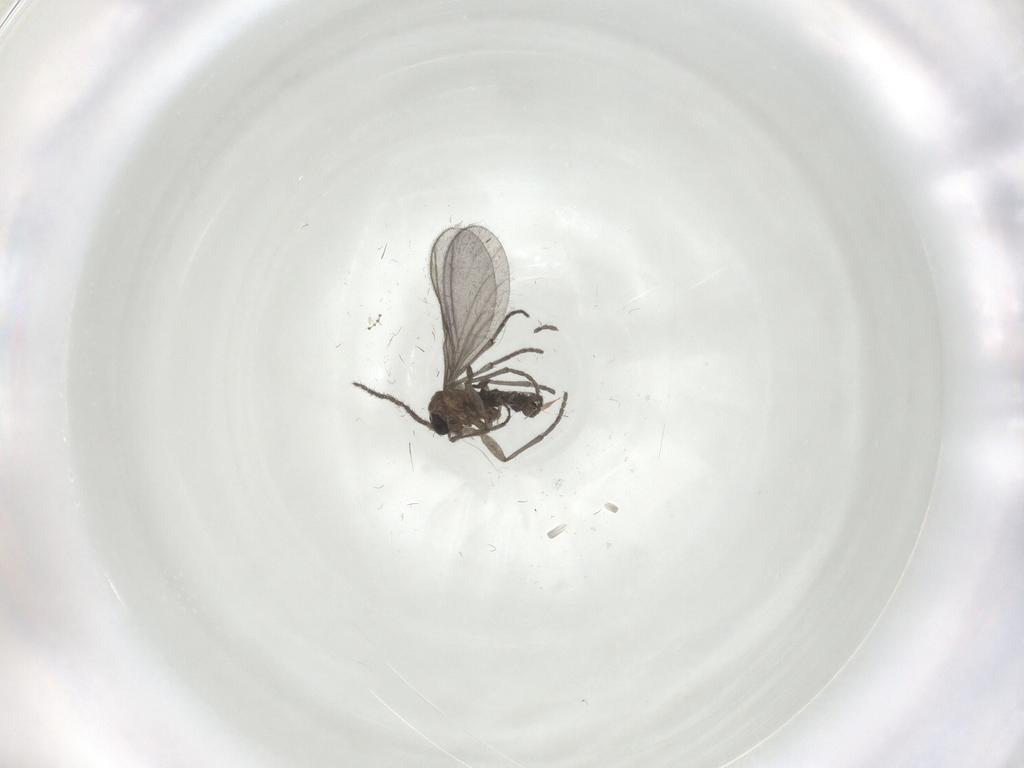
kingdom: Animalia
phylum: Arthropoda
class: Insecta
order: Diptera
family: Sciaridae
